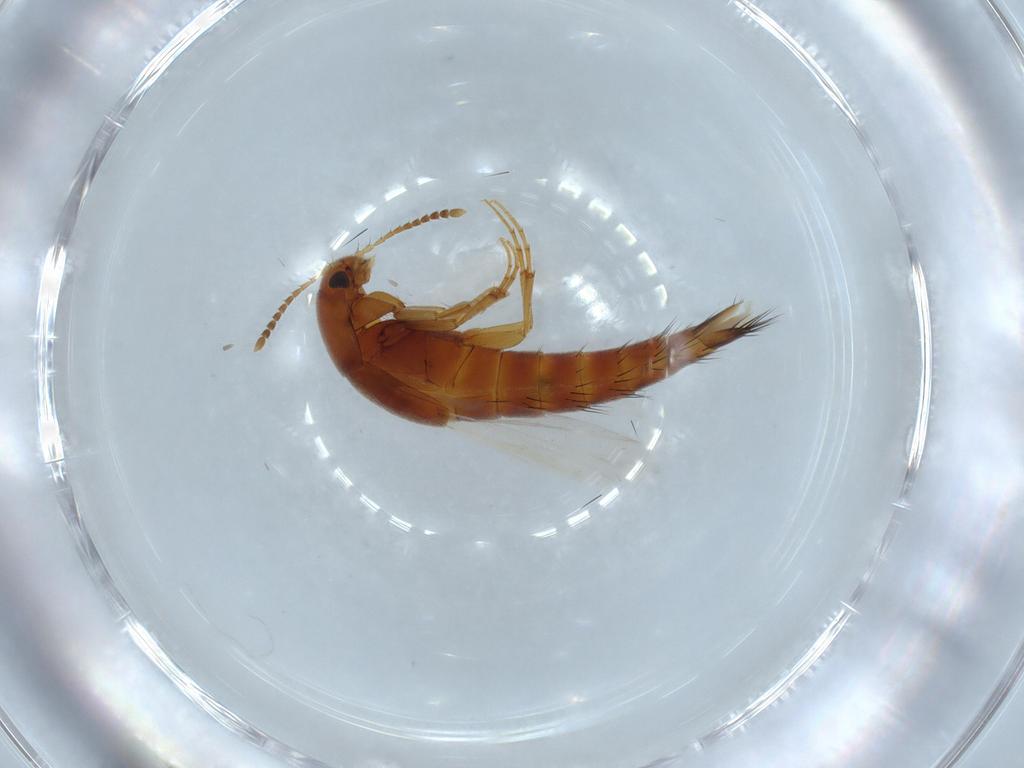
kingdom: Animalia
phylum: Arthropoda
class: Insecta
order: Coleoptera
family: Staphylinidae
